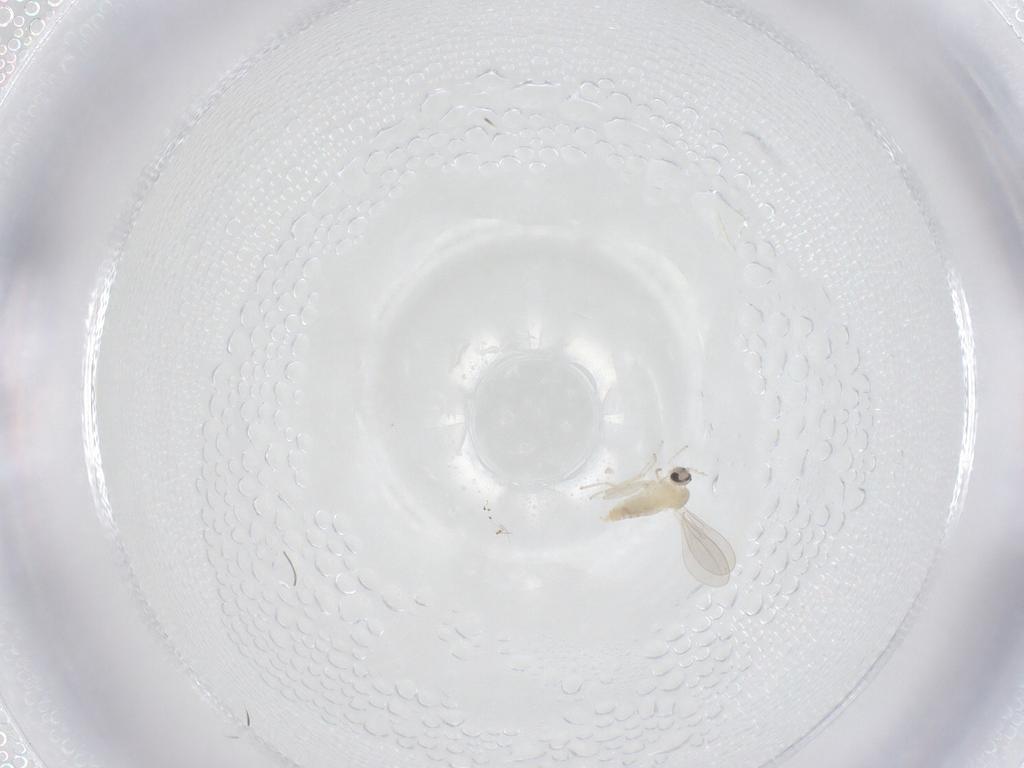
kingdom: Animalia
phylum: Arthropoda
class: Insecta
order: Diptera
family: Cecidomyiidae
